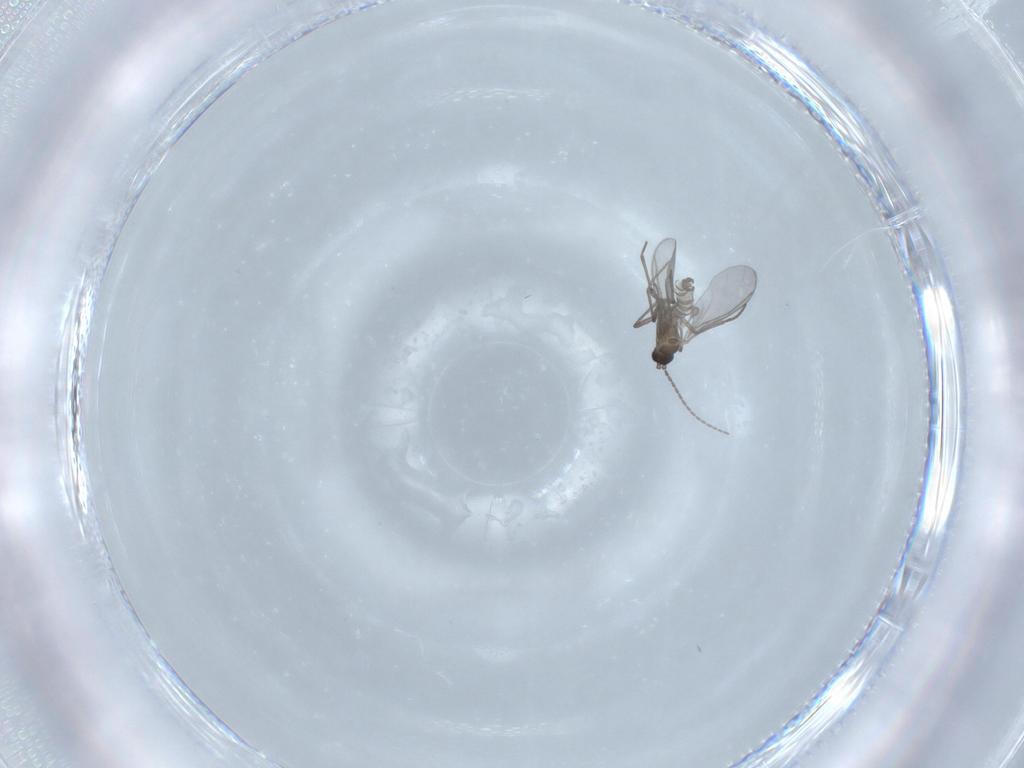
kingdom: Animalia
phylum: Arthropoda
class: Insecta
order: Diptera
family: Sciaridae
